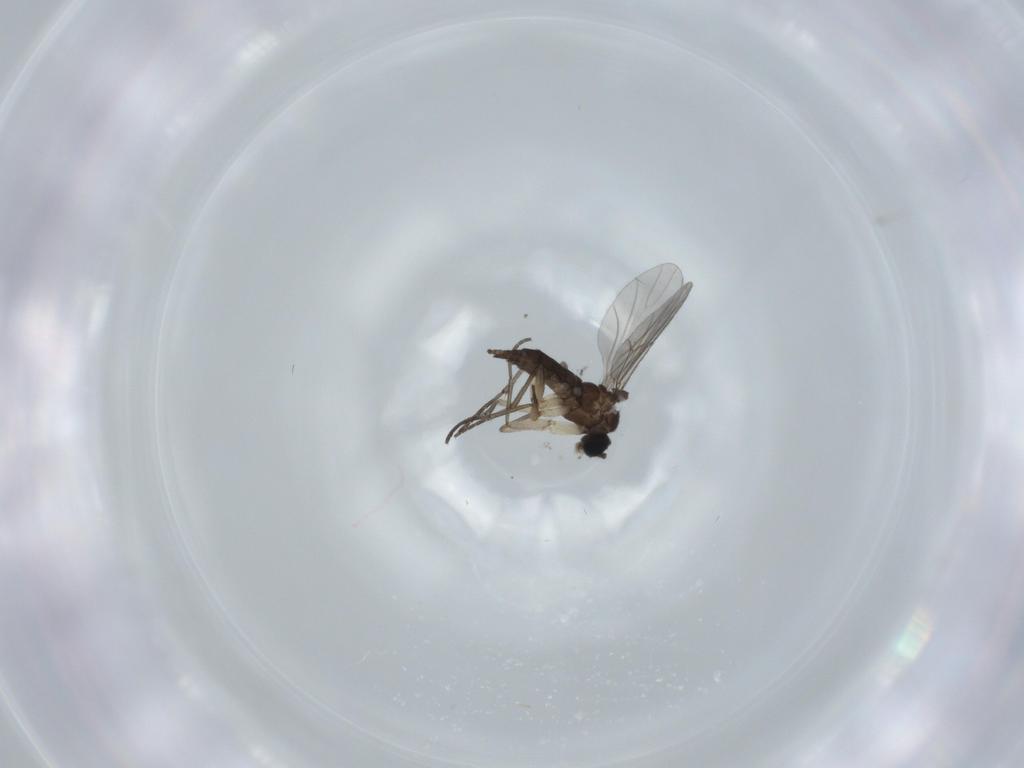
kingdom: Animalia
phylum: Arthropoda
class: Insecta
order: Diptera
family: Sciaridae
